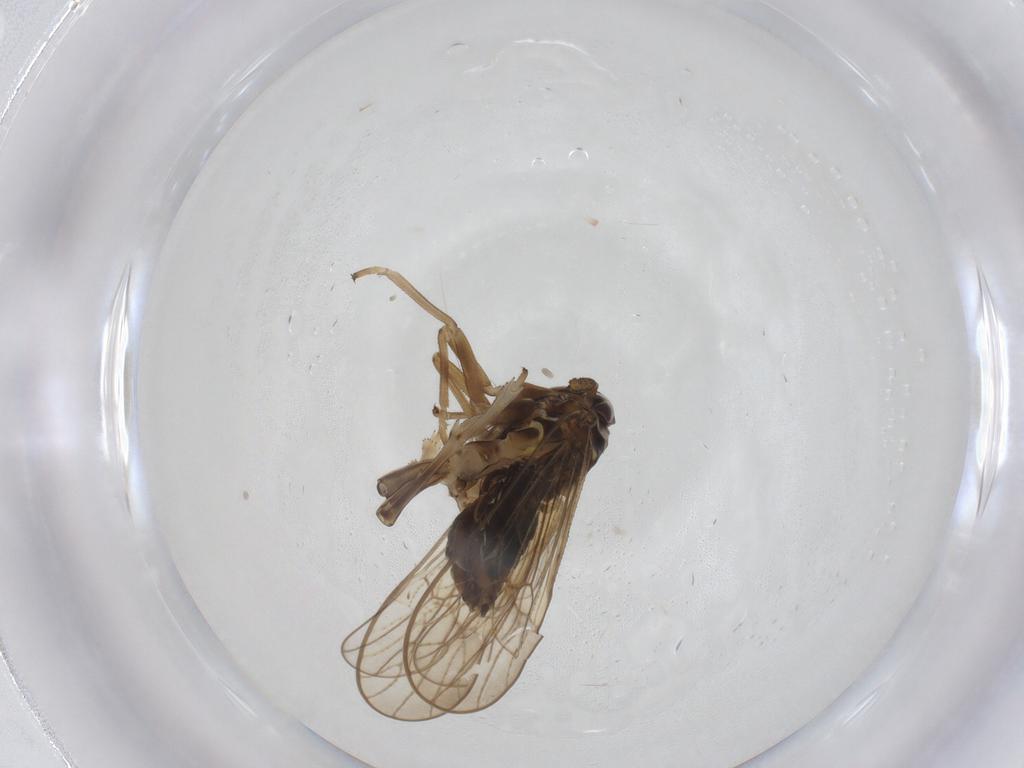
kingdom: Animalia
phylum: Arthropoda
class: Insecta
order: Hemiptera
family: Delphacidae
